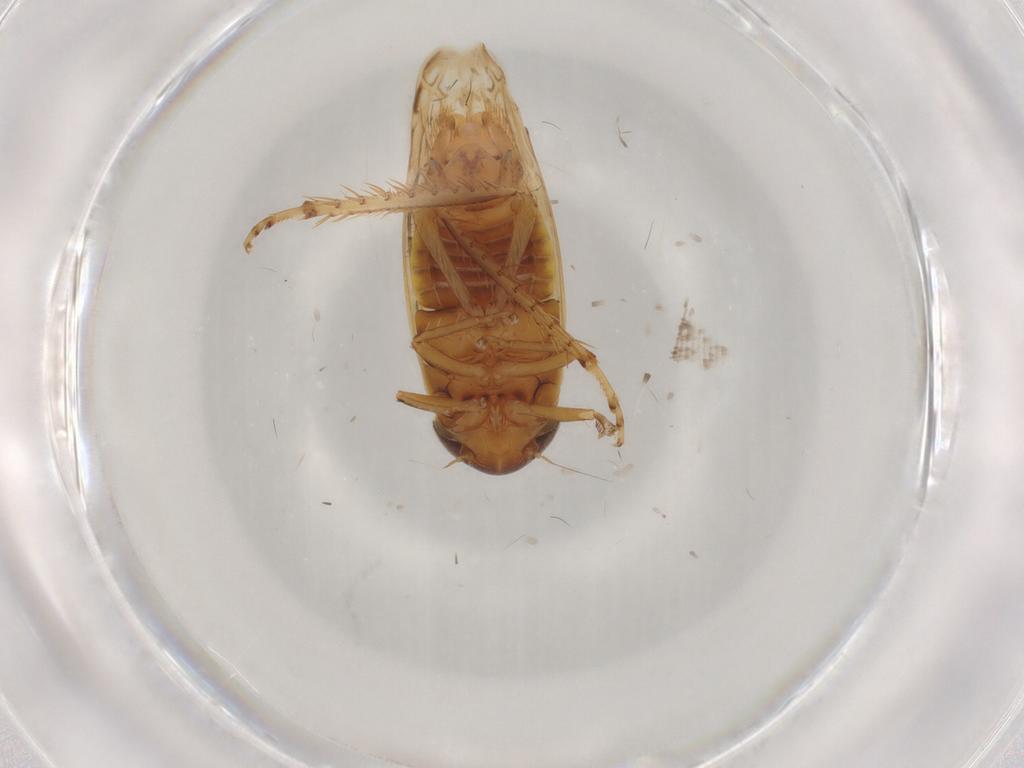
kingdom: Animalia
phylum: Arthropoda
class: Insecta
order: Hemiptera
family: Cicadellidae
